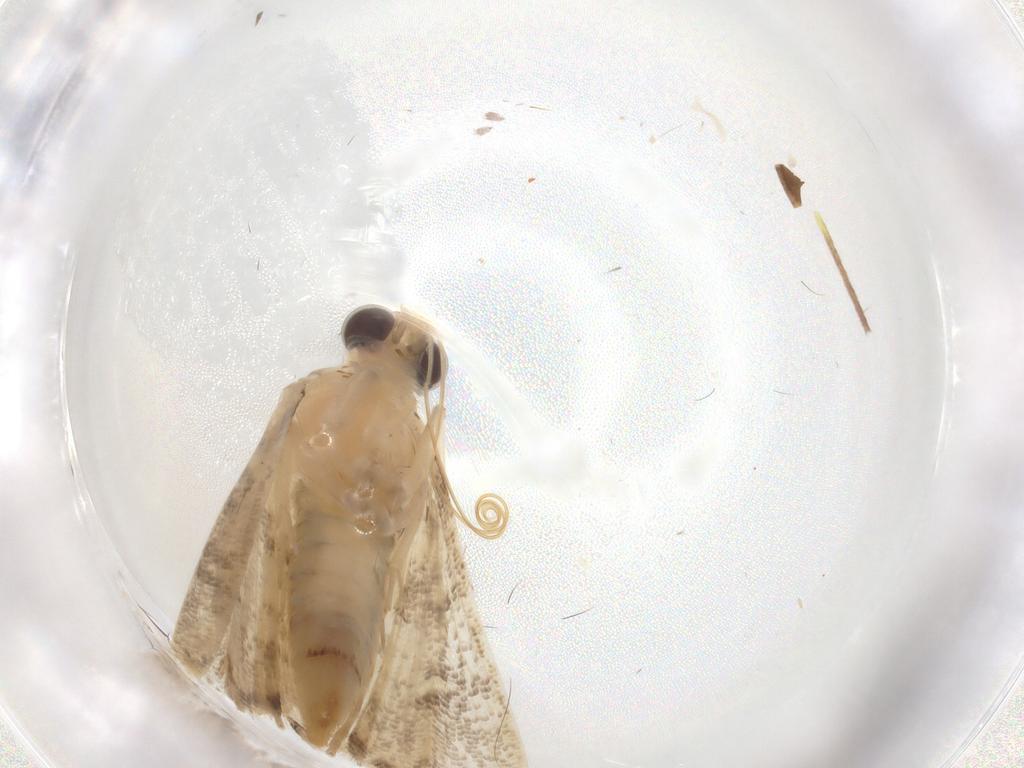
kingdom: Animalia
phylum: Arthropoda
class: Insecta
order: Lepidoptera
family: Crambidae
